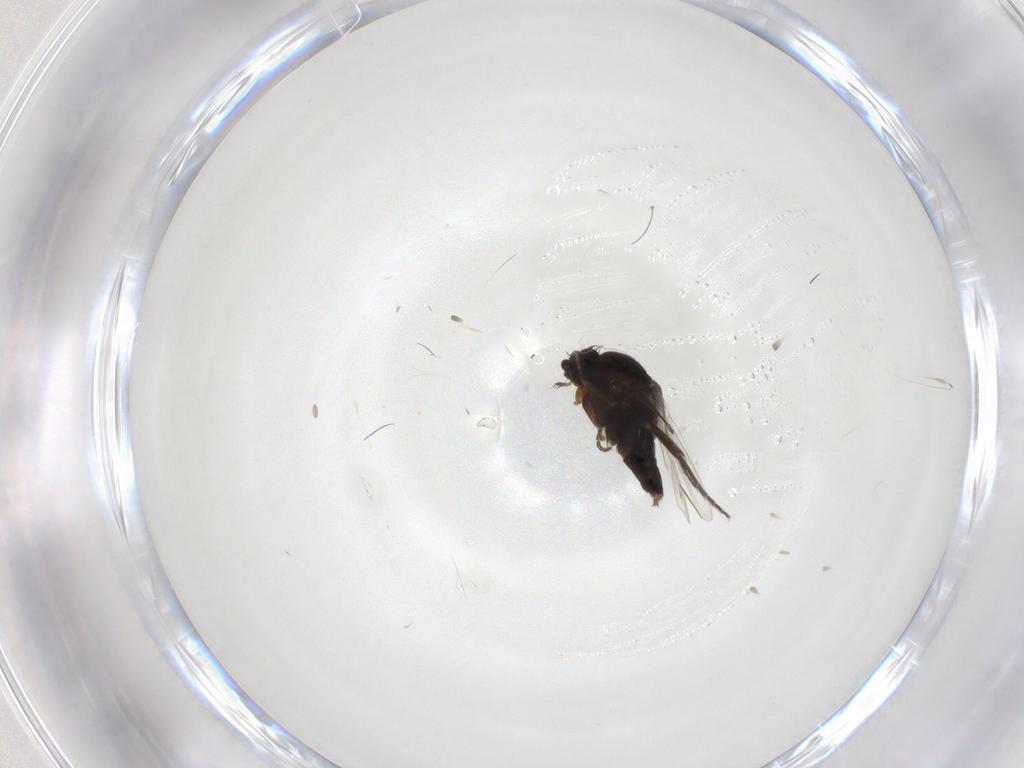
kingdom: Animalia
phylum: Arthropoda
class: Insecta
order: Diptera
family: Phoridae
